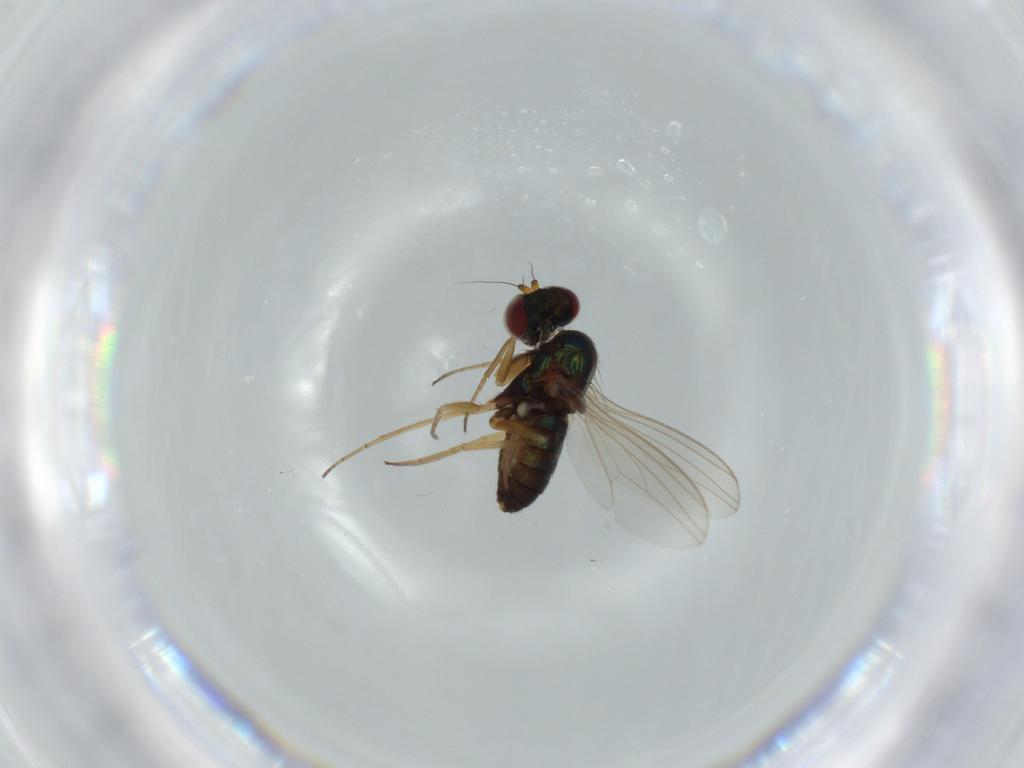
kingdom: Animalia
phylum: Arthropoda
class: Insecta
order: Diptera
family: Dolichopodidae
